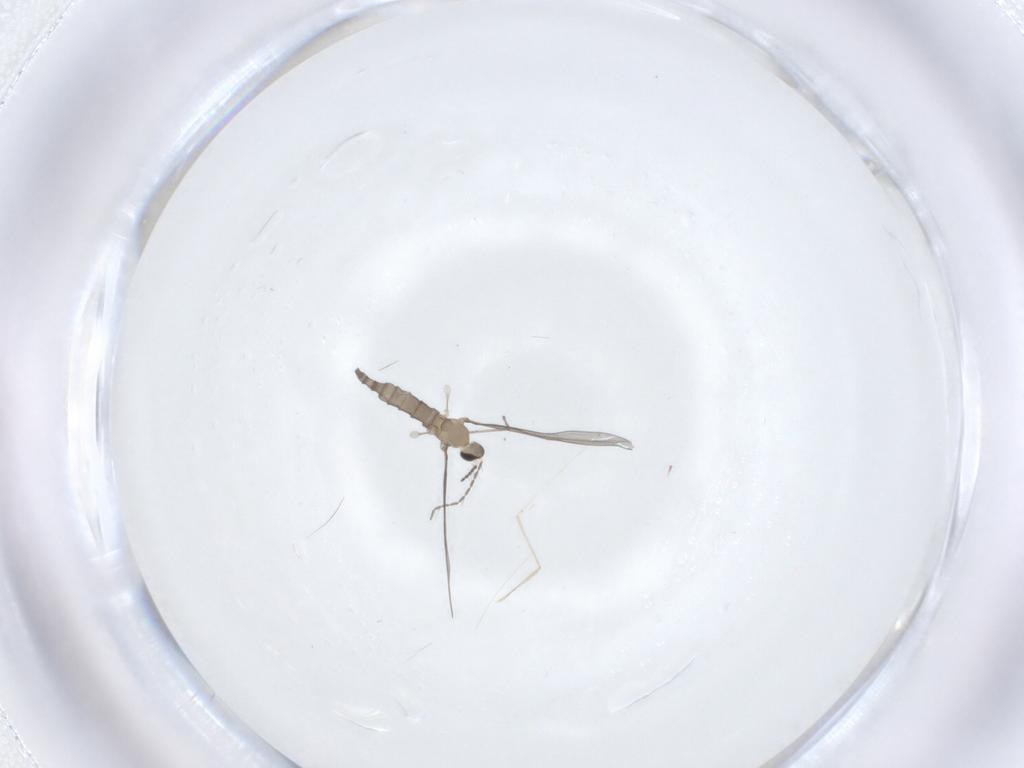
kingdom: Animalia
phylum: Arthropoda
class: Insecta
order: Diptera
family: Cecidomyiidae
